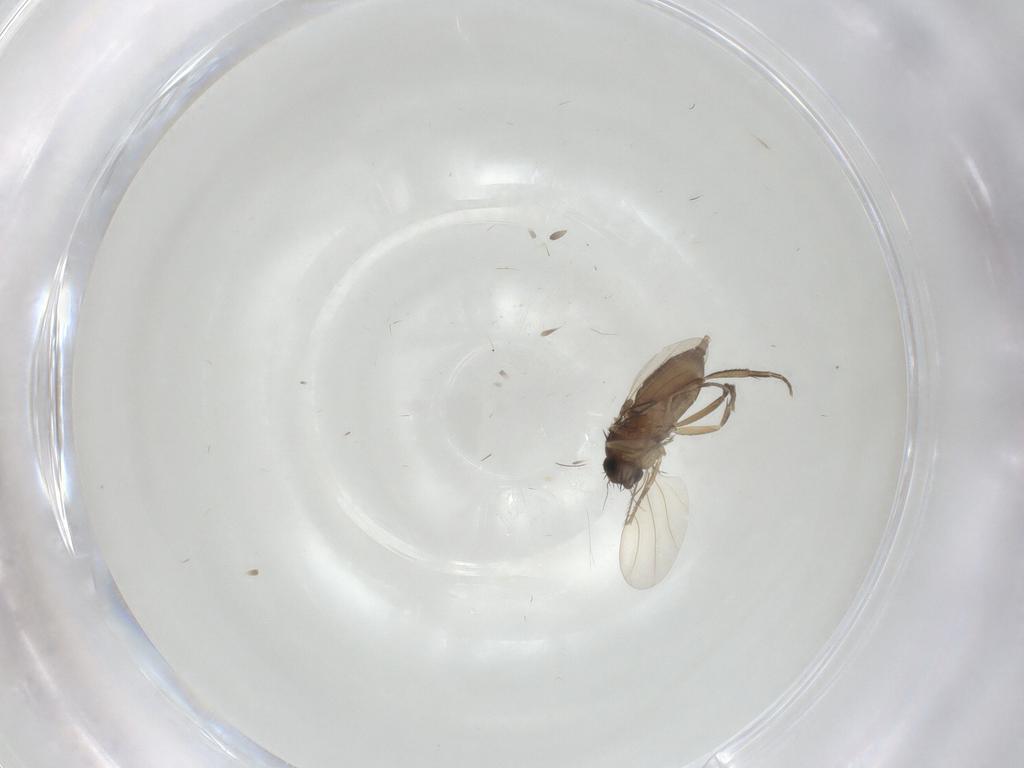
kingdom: Animalia
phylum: Arthropoda
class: Insecta
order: Diptera
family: Phoridae
